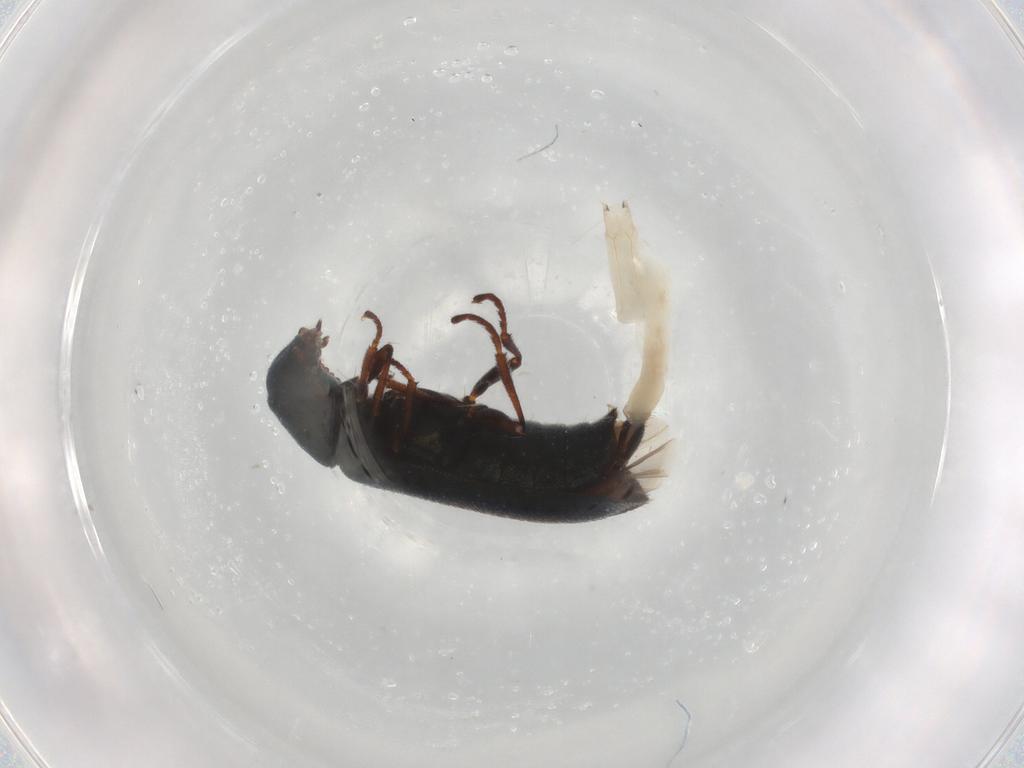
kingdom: Animalia
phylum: Arthropoda
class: Insecta
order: Coleoptera
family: Melyridae
